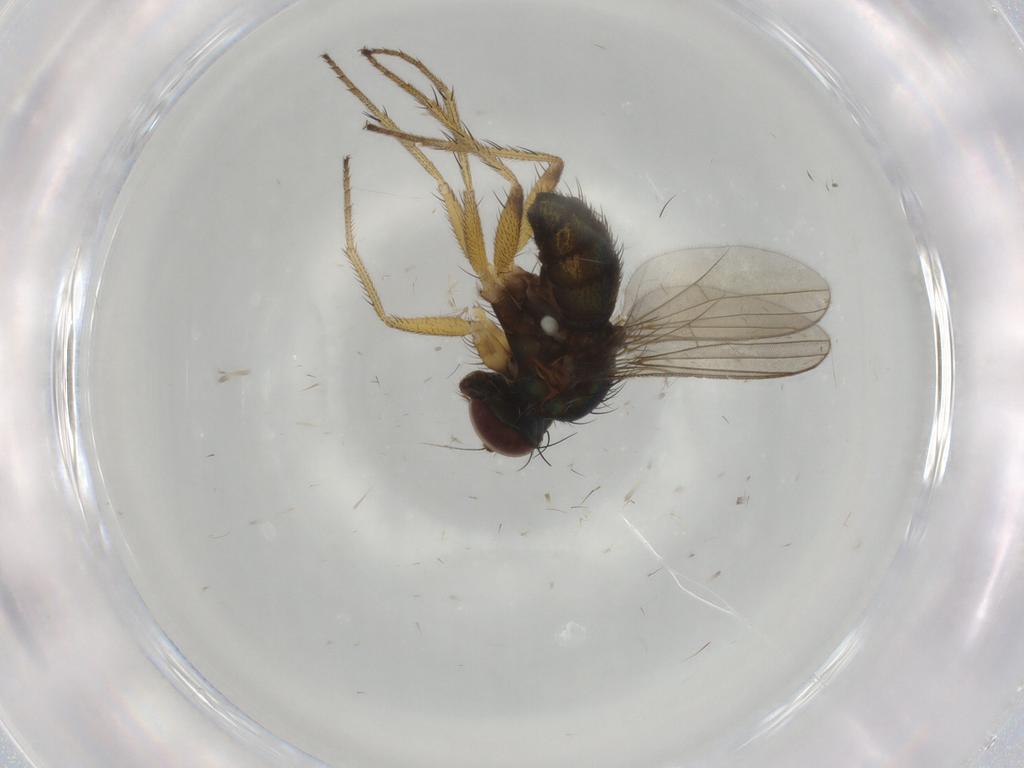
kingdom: Animalia
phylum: Arthropoda
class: Insecta
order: Diptera
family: Dolichopodidae
